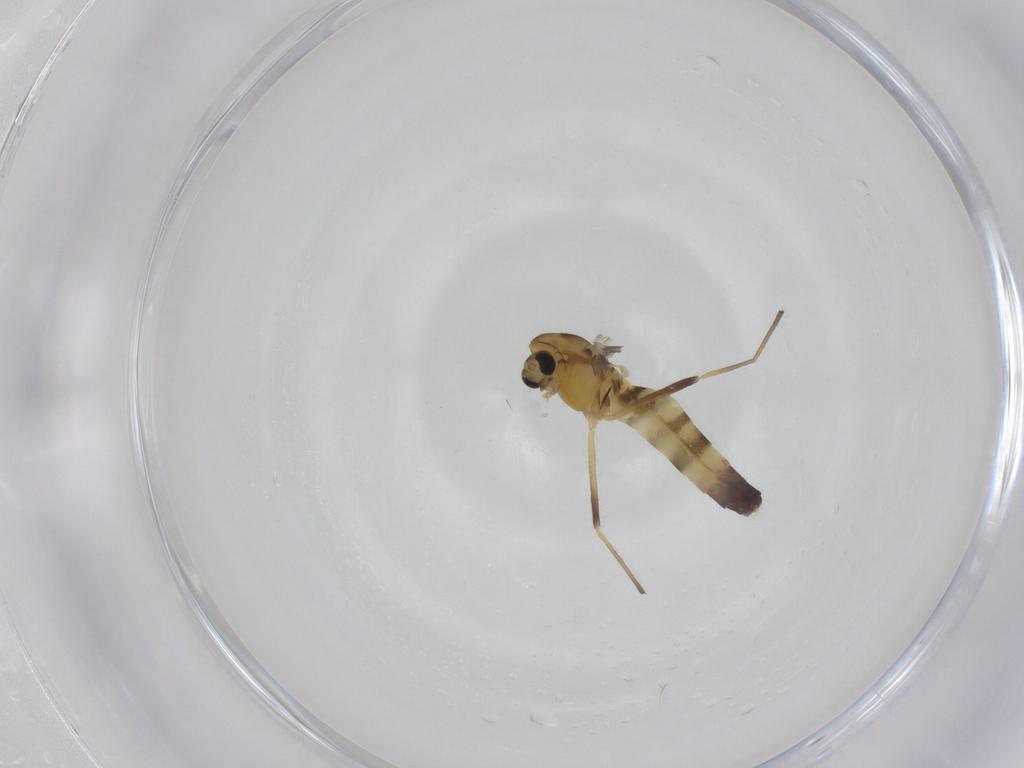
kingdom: Animalia
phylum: Arthropoda
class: Insecta
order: Diptera
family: Chironomidae
